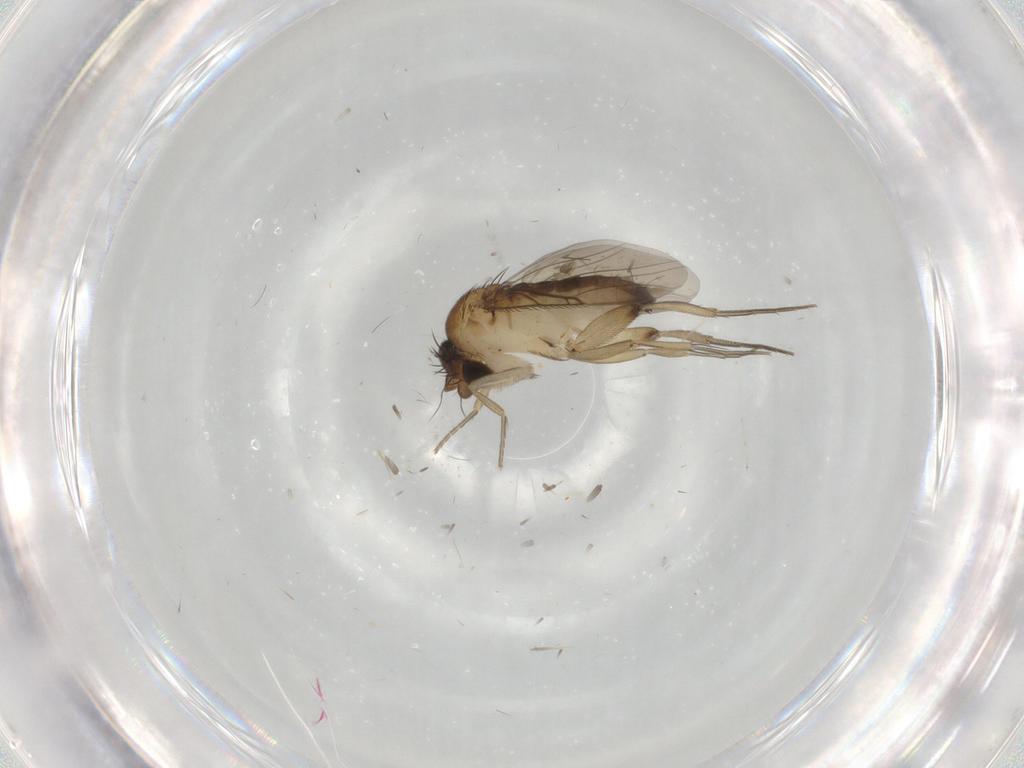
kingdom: Animalia
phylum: Arthropoda
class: Insecta
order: Diptera
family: Phoridae
